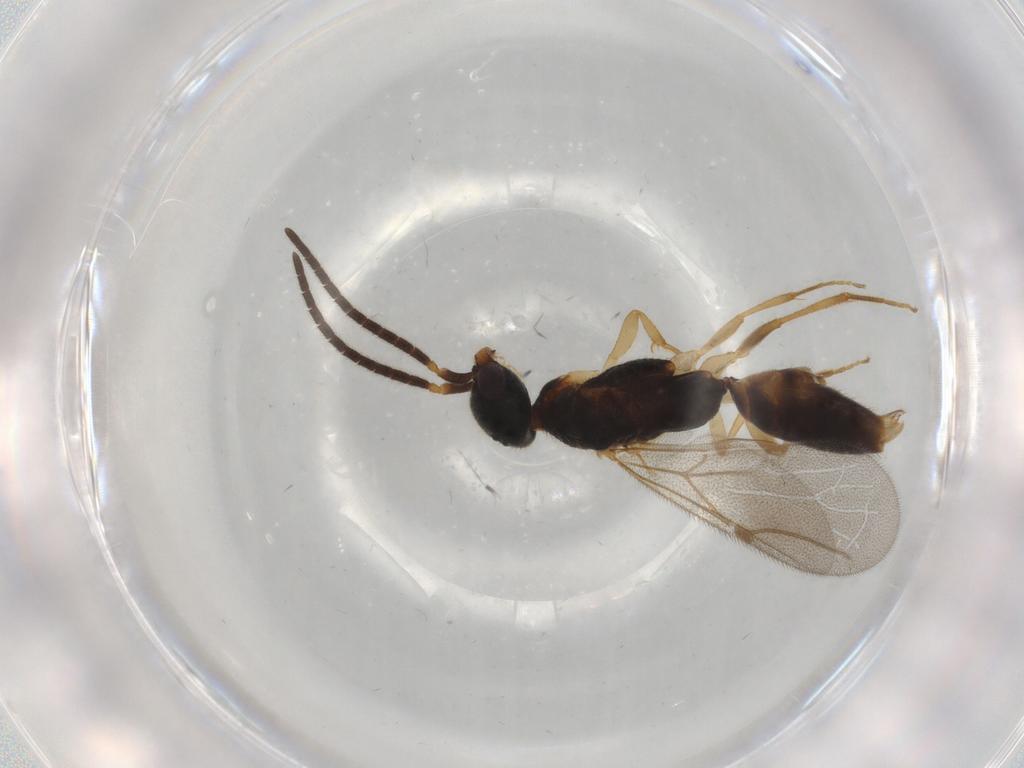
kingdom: Animalia
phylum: Arthropoda
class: Insecta
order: Hymenoptera
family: Bethylidae
